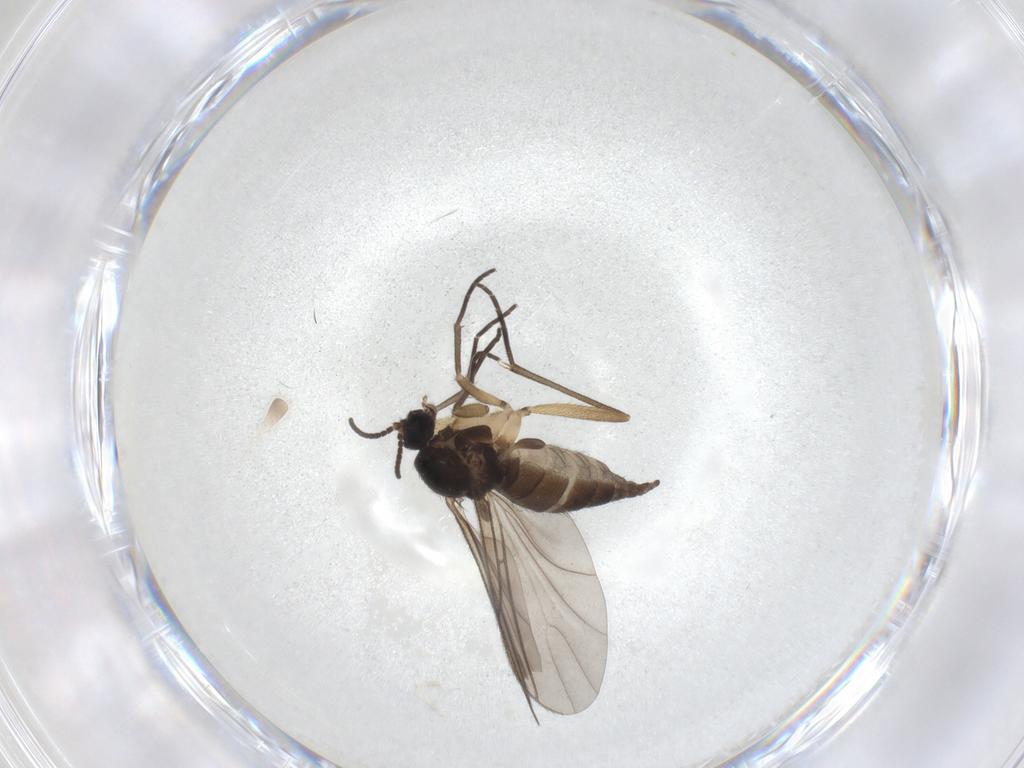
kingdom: Animalia
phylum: Arthropoda
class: Insecta
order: Diptera
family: Sciaridae
